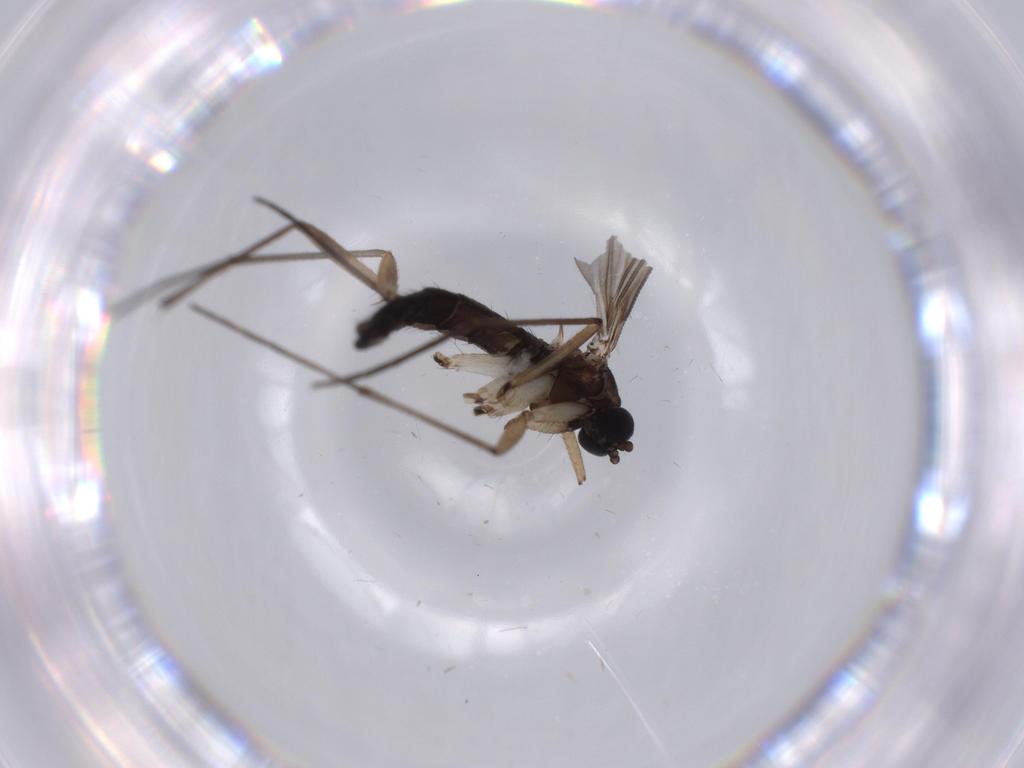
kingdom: Animalia
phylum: Arthropoda
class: Insecta
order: Diptera
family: Sciaridae
